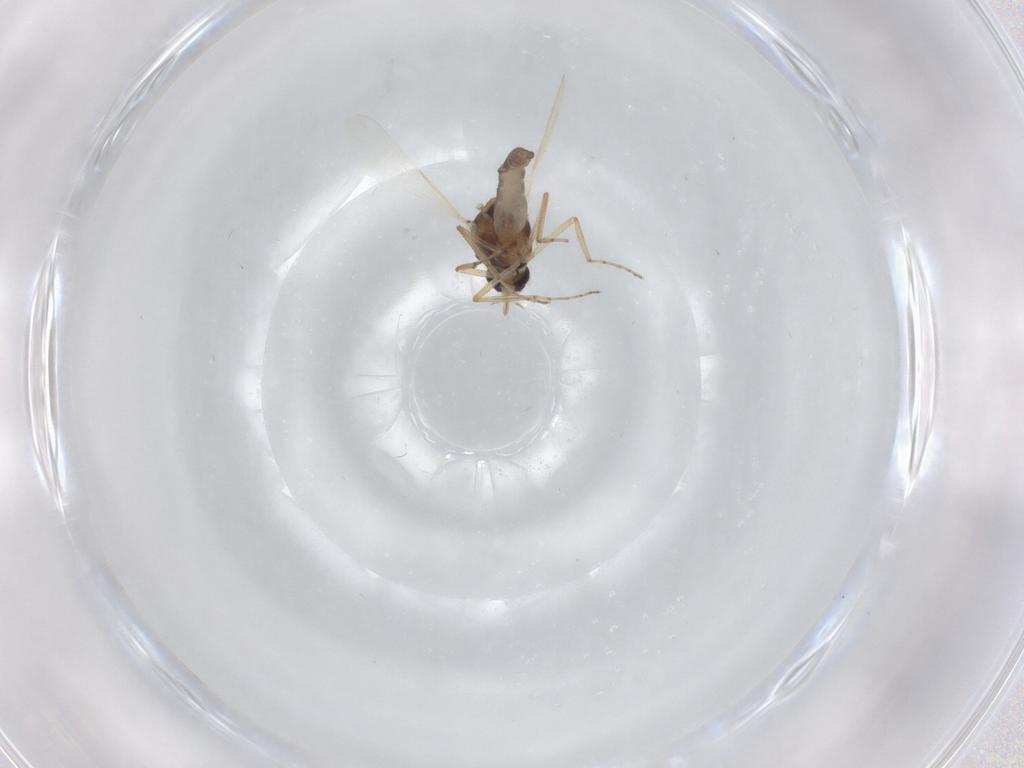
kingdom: Animalia
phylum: Arthropoda
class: Insecta
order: Diptera
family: Ceratopogonidae
